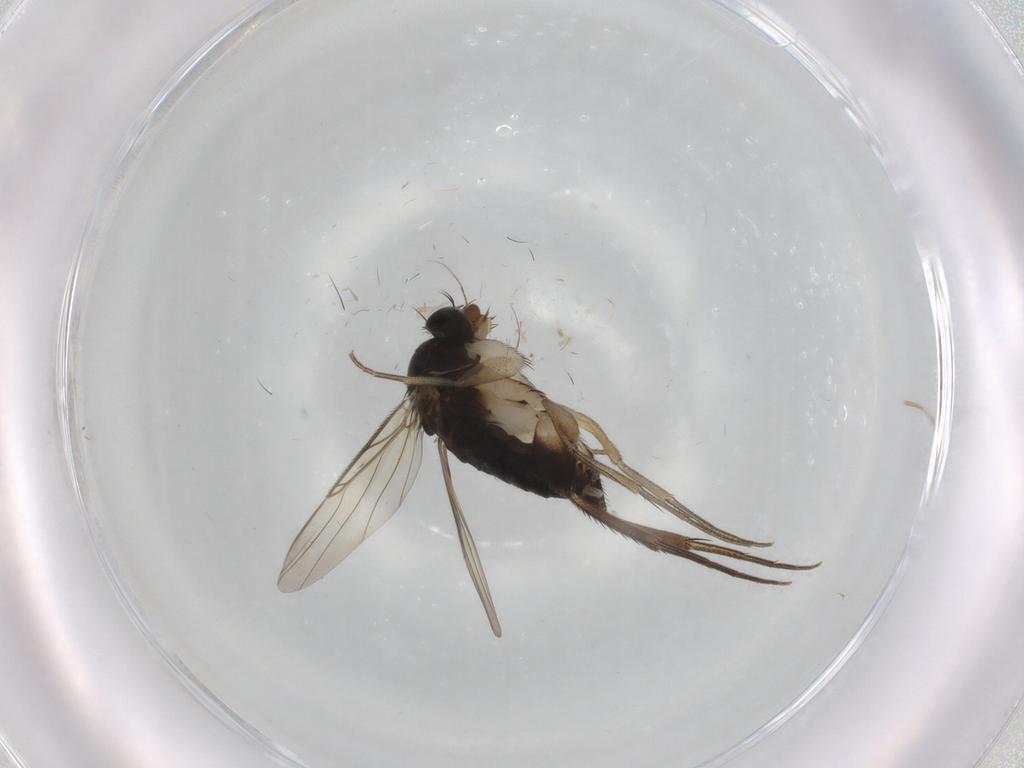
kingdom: Animalia
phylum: Arthropoda
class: Insecta
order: Diptera
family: Phoridae
